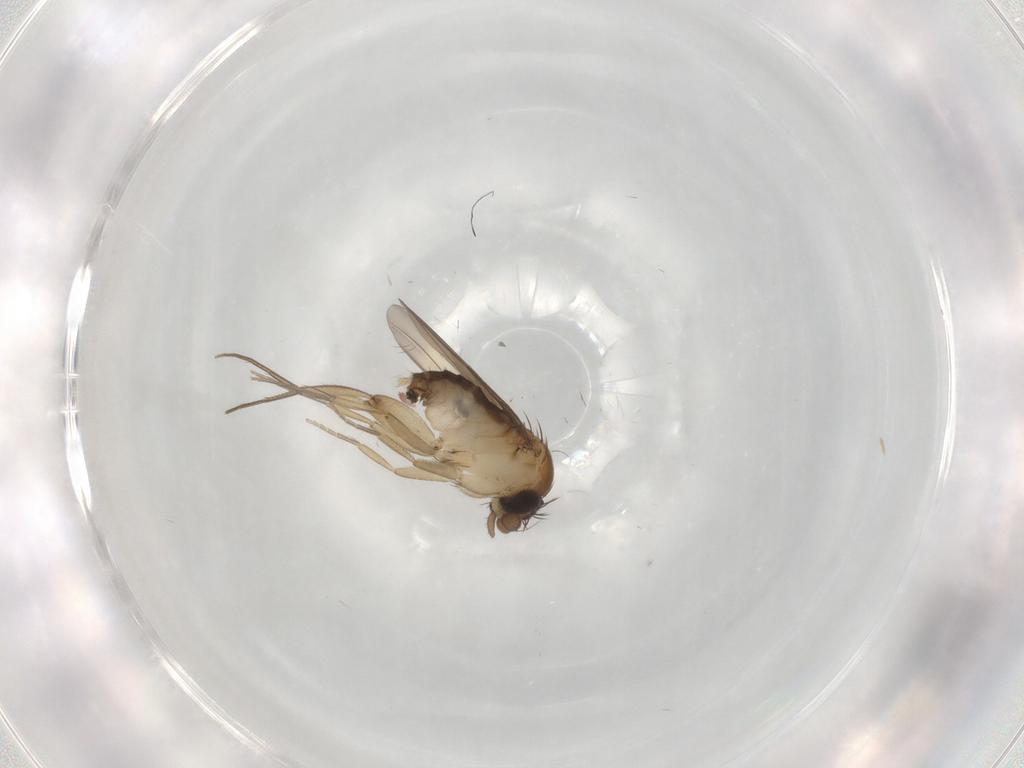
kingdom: Animalia
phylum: Arthropoda
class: Insecta
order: Diptera
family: Phoridae
